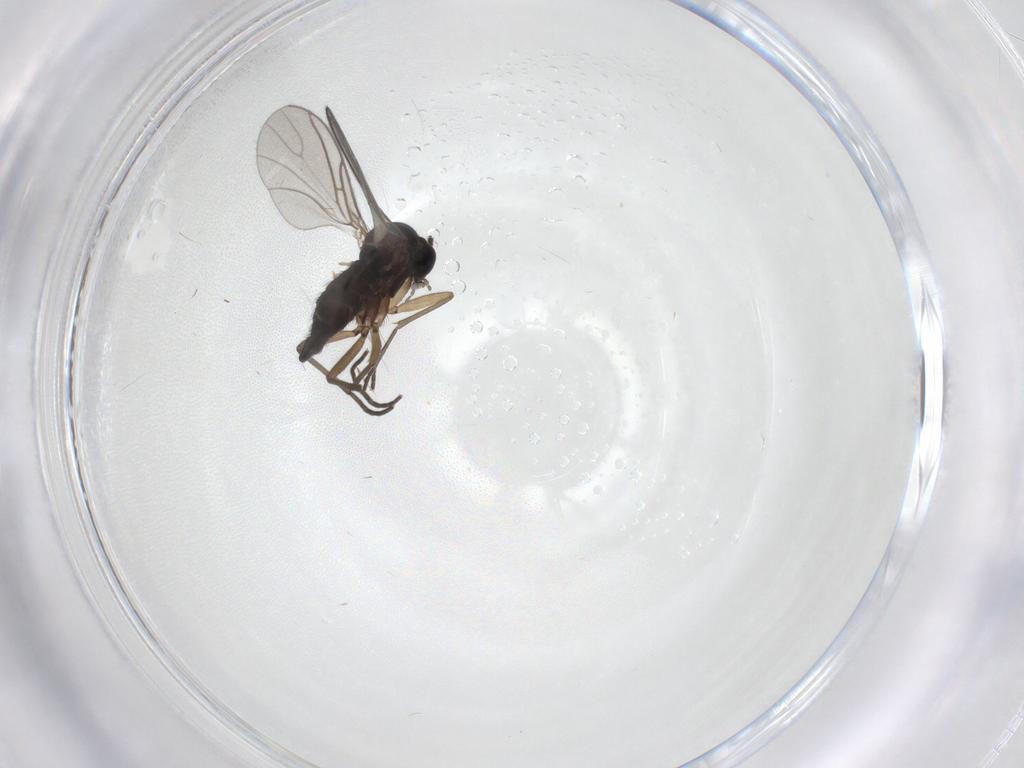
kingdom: Animalia
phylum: Arthropoda
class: Insecta
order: Diptera
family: Sciaridae
